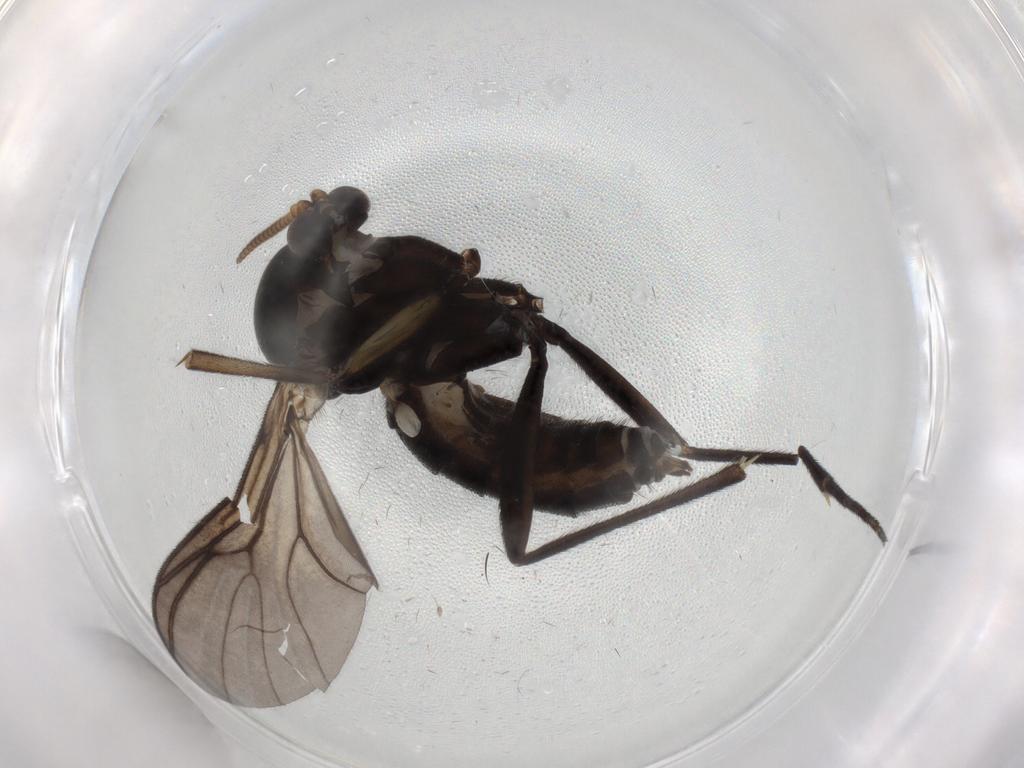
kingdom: Animalia
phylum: Arthropoda
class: Insecta
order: Diptera
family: Mycetophilidae
